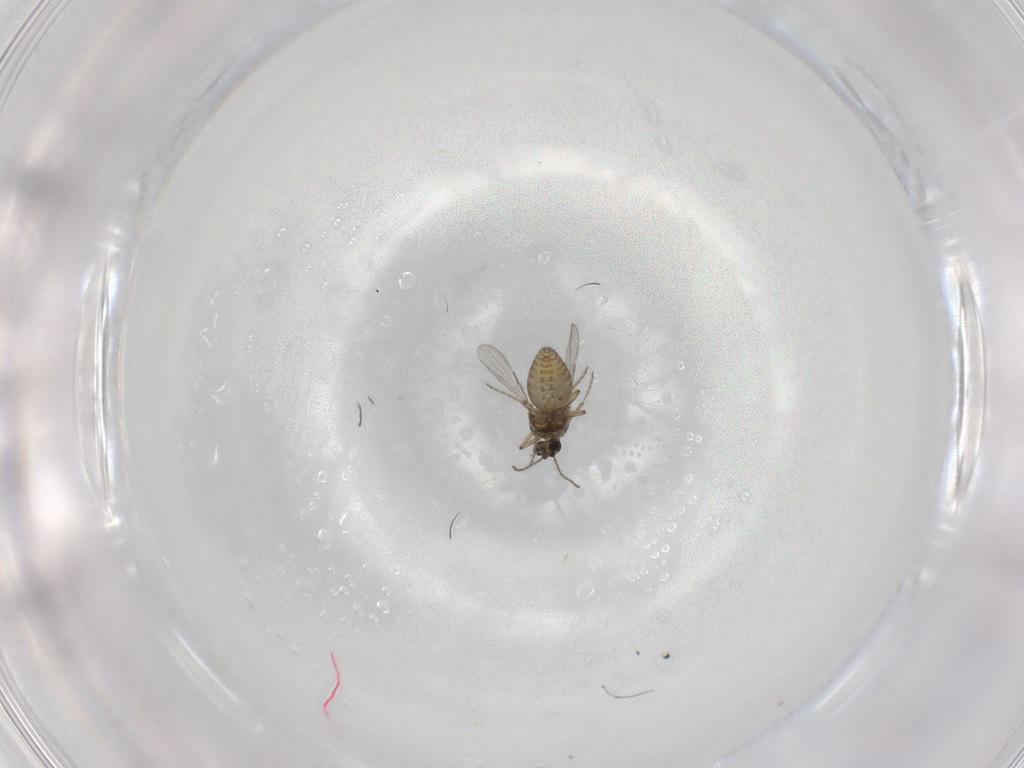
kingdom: Animalia
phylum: Arthropoda
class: Insecta
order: Diptera
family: Ceratopogonidae
